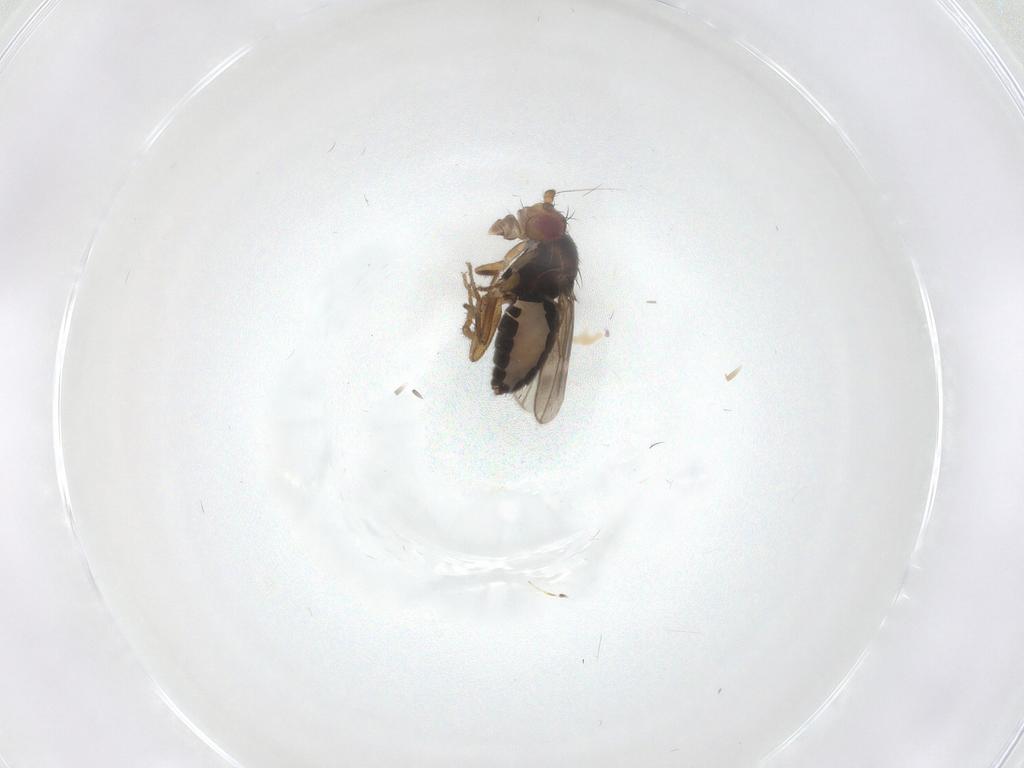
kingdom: Animalia
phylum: Arthropoda
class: Insecta
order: Diptera
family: Sphaeroceridae
